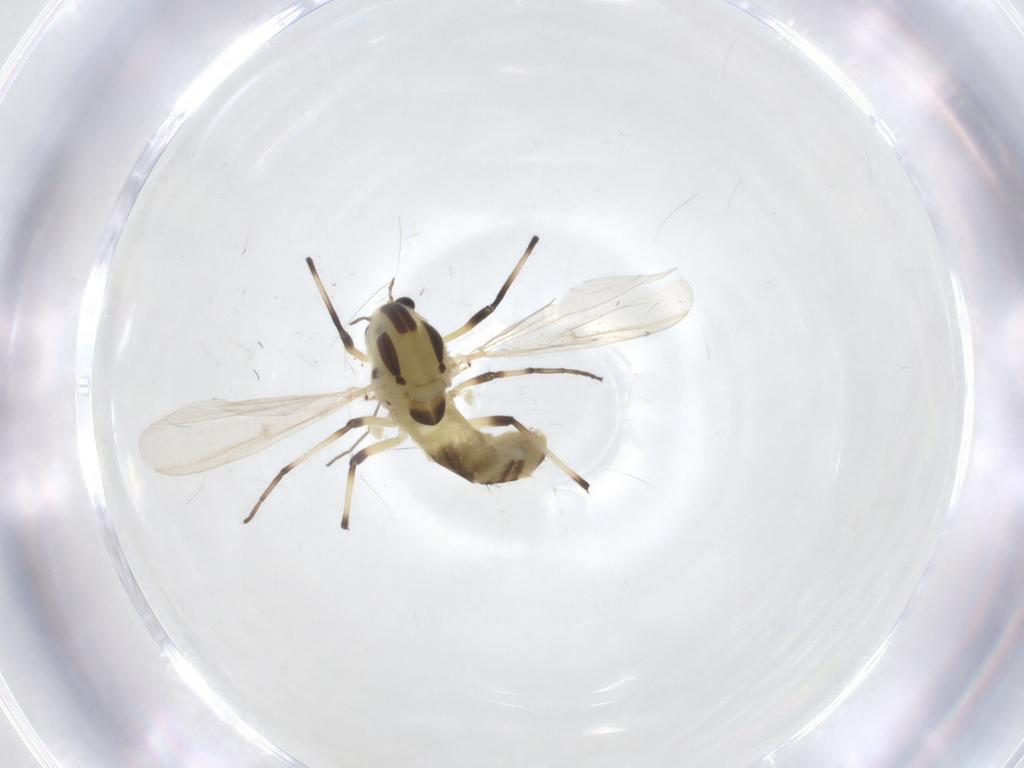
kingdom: Animalia
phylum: Arthropoda
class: Insecta
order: Diptera
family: Chironomidae
